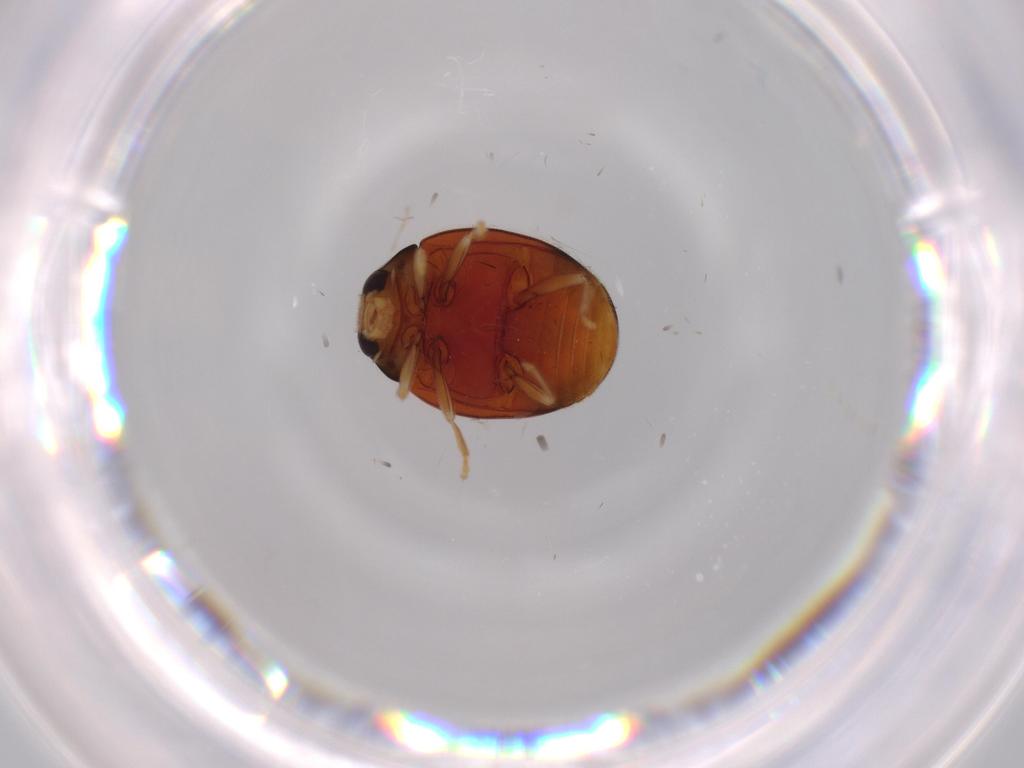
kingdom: Animalia
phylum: Arthropoda
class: Insecta
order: Coleoptera
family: Coccinellidae
